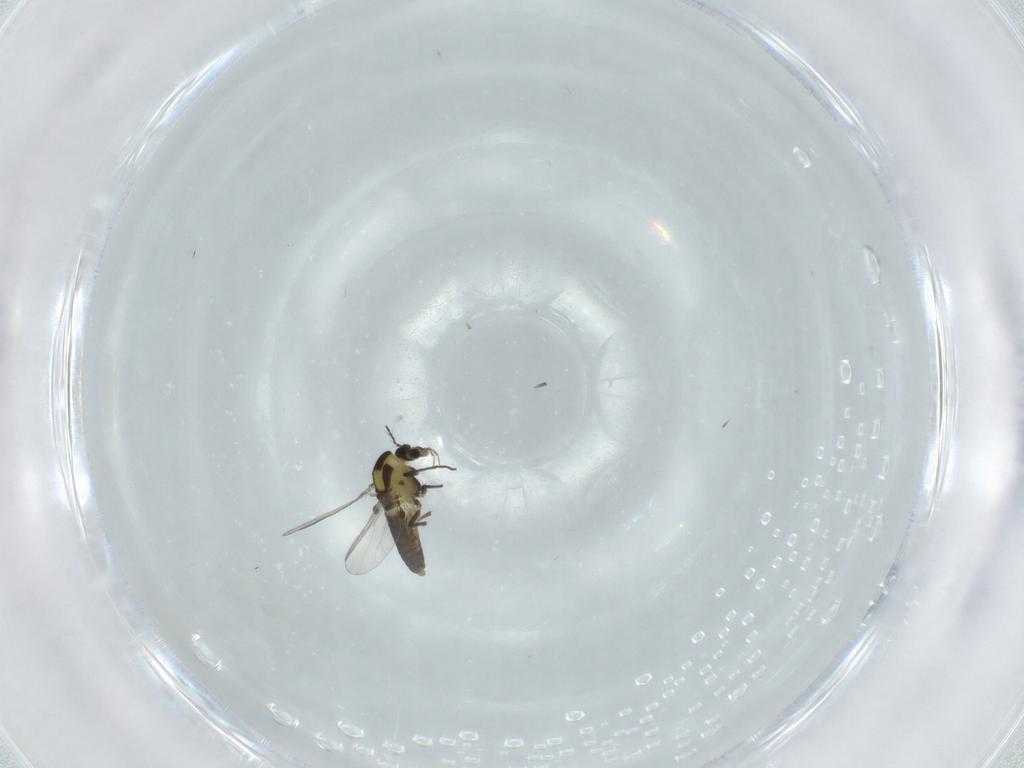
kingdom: Animalia
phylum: Arthropoda
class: Insecta
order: Diptera
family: Chironomidae
